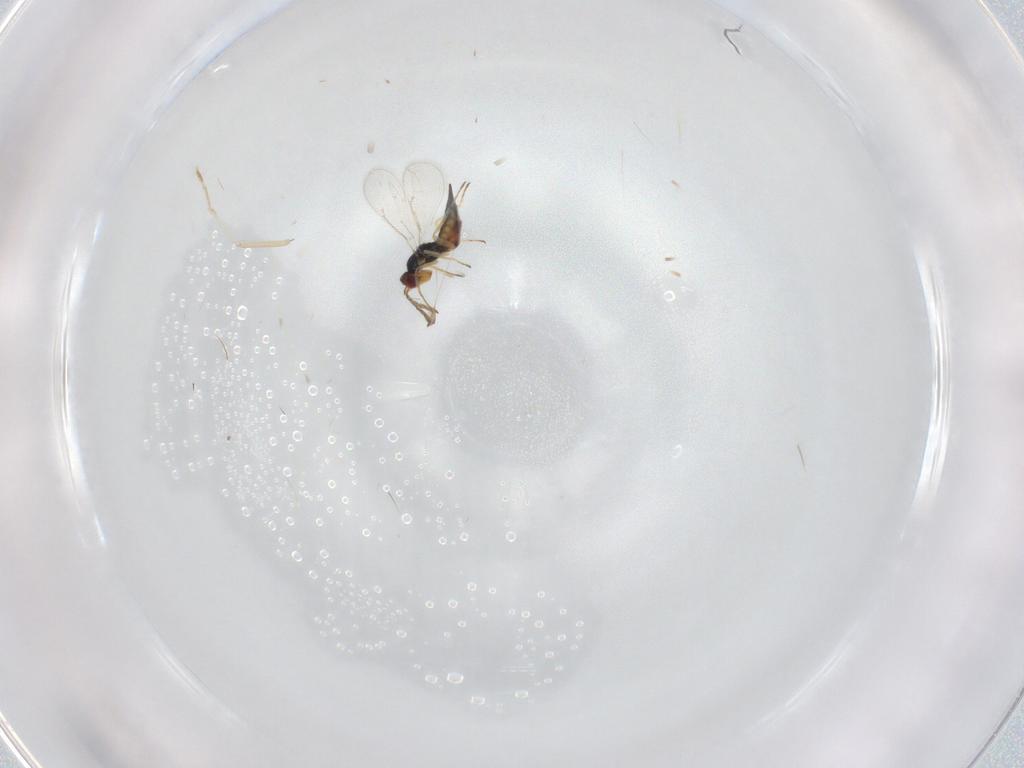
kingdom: Animalia
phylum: Arthropoda
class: Insecta
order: Hymenoptera
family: Eulophidae
